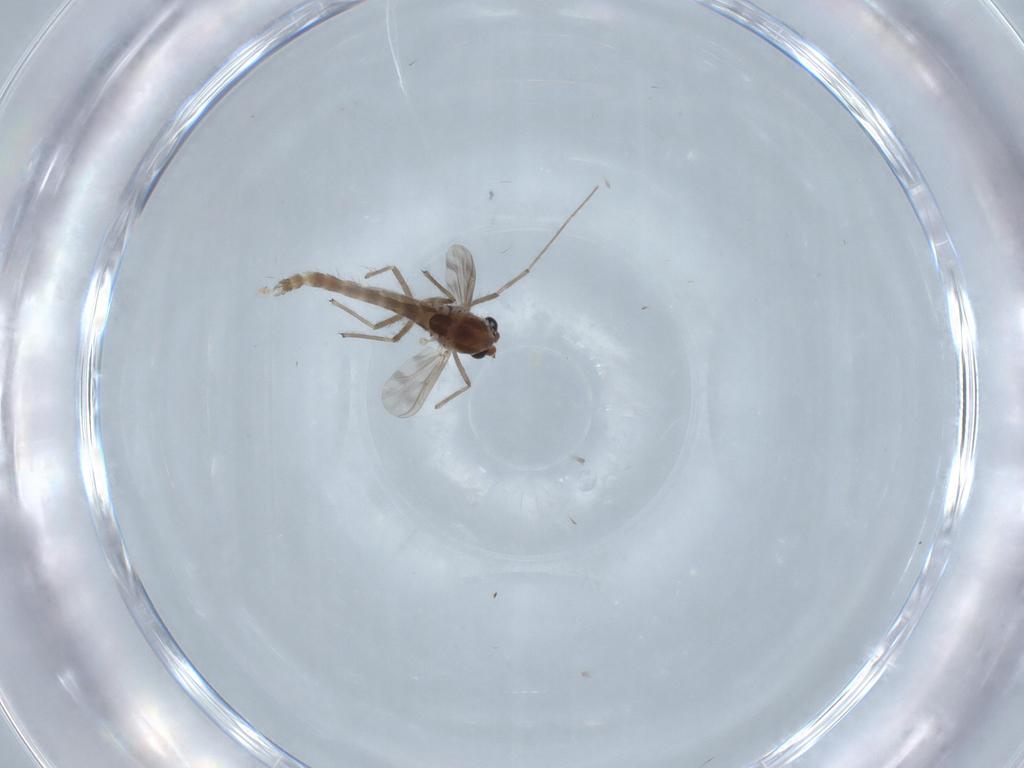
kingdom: Animalia
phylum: Arthropoda
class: Insecta
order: Diptera
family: Chironomidae
